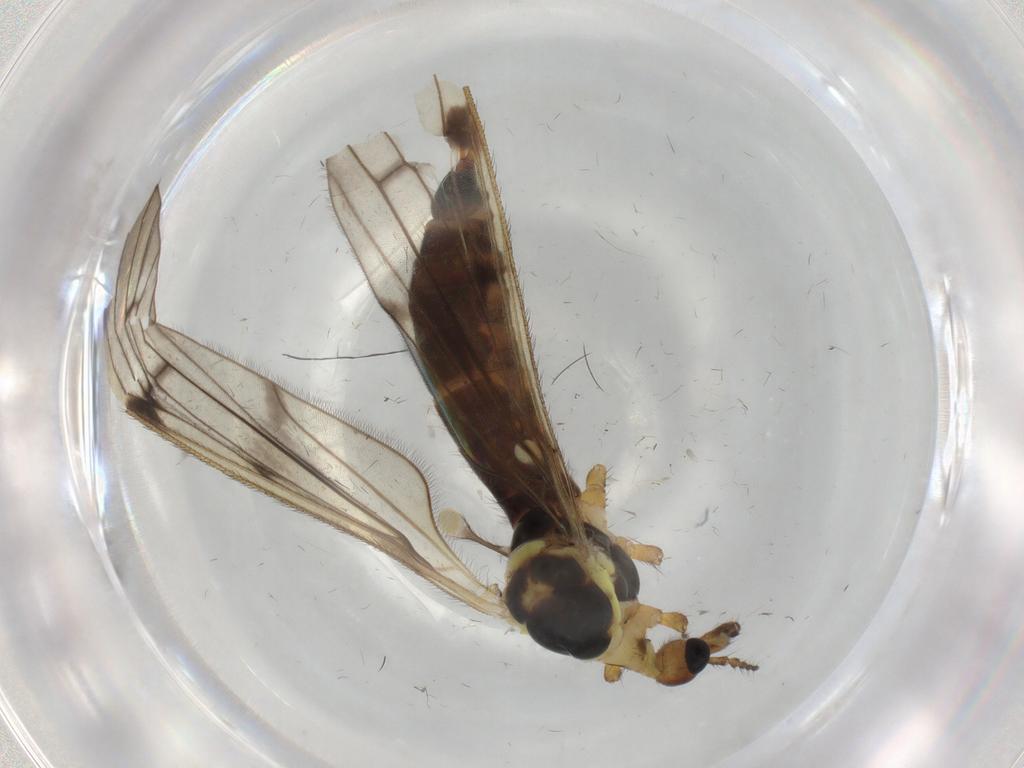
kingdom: Animalia
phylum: Arthropoda
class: Insecta
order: Diptera
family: Limoniidae
